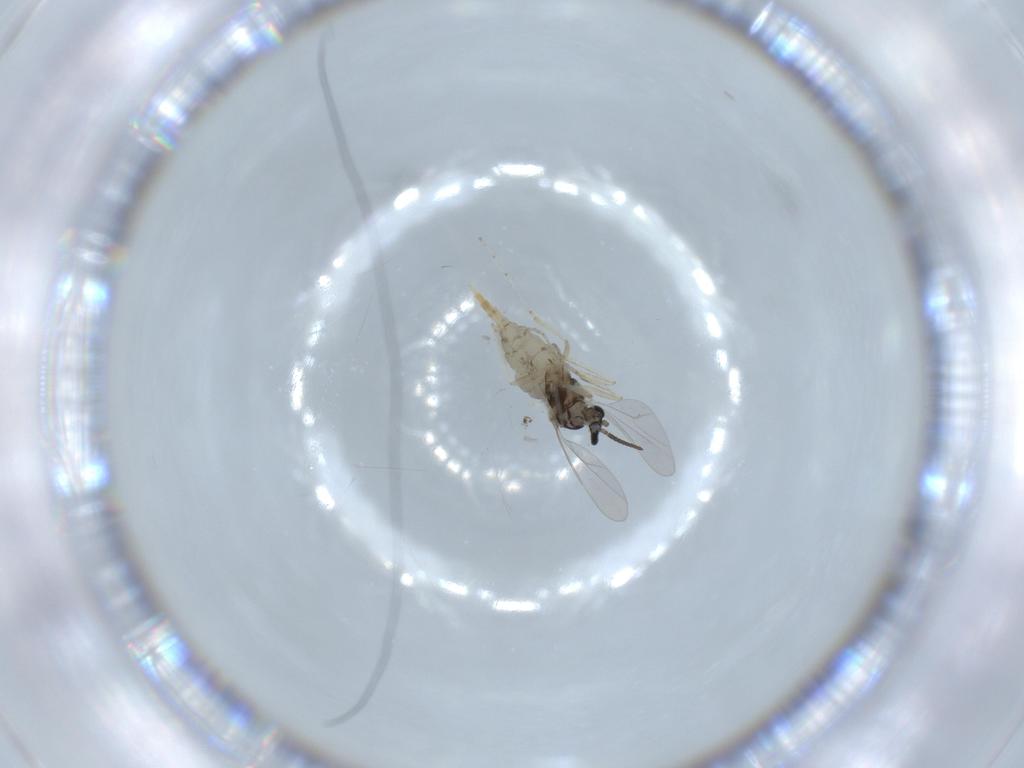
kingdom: Animalia
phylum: Arthropoda
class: Insecta
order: Diptera
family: Cecidomyiidae
